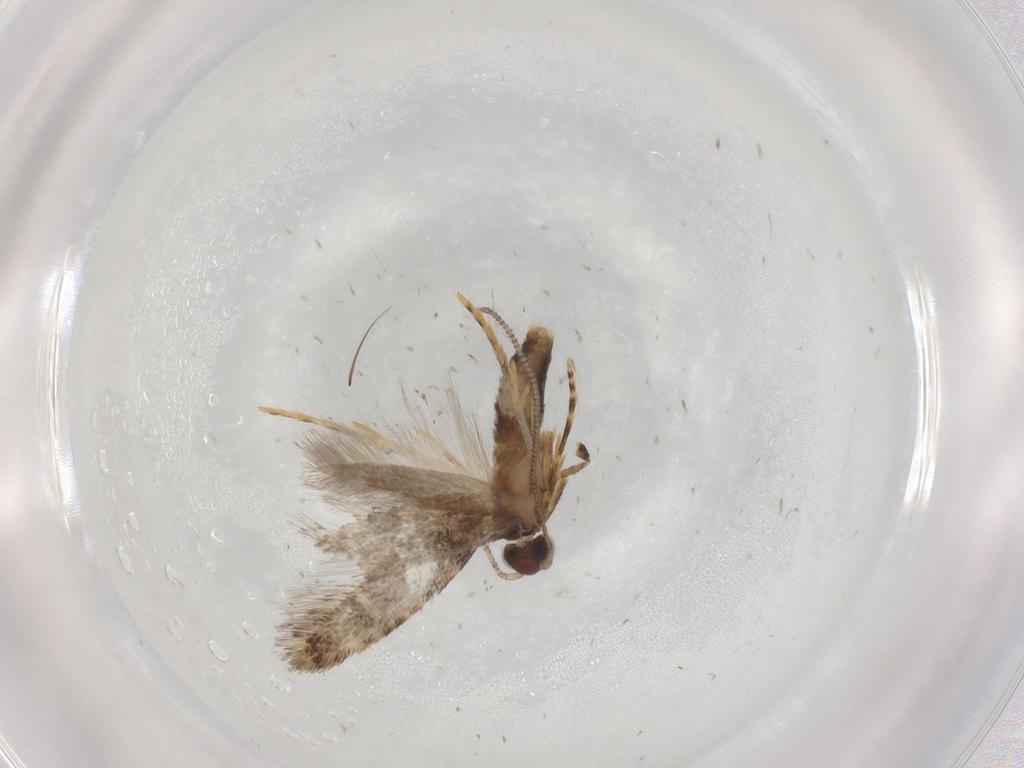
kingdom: Animalia
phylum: Arthropoda
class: Insecta
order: Lepidoptera
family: Tortricidae
